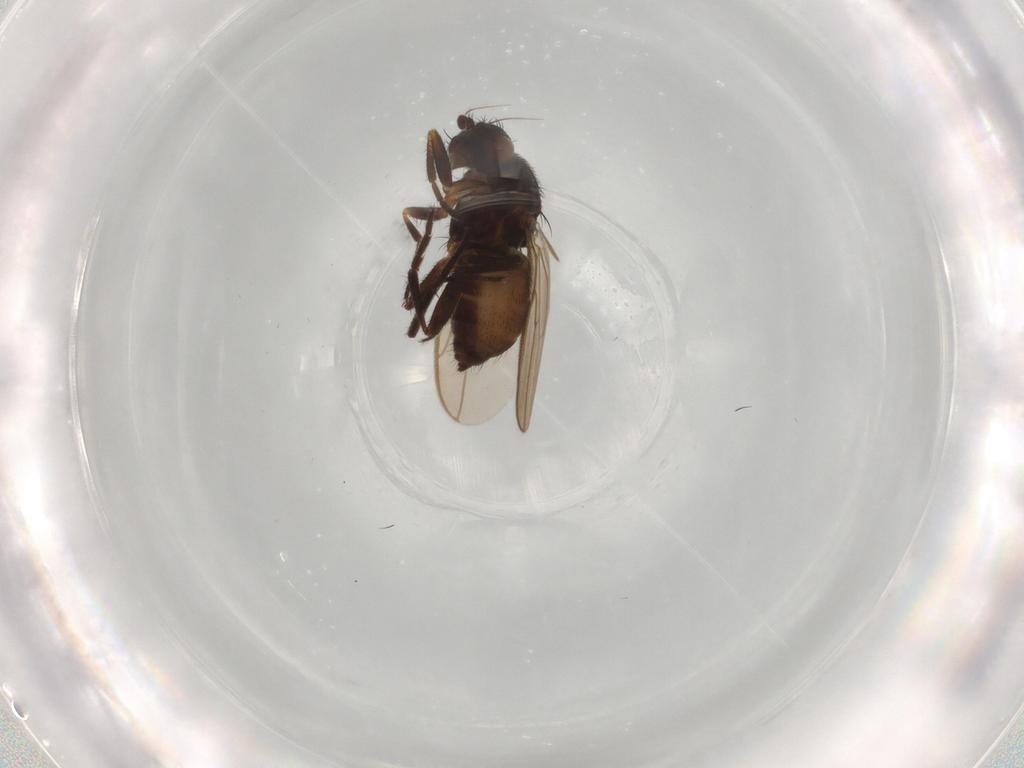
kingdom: Animalia
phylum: Arthropoda
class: Insecta
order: Diptera
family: Sphaeroceridae
